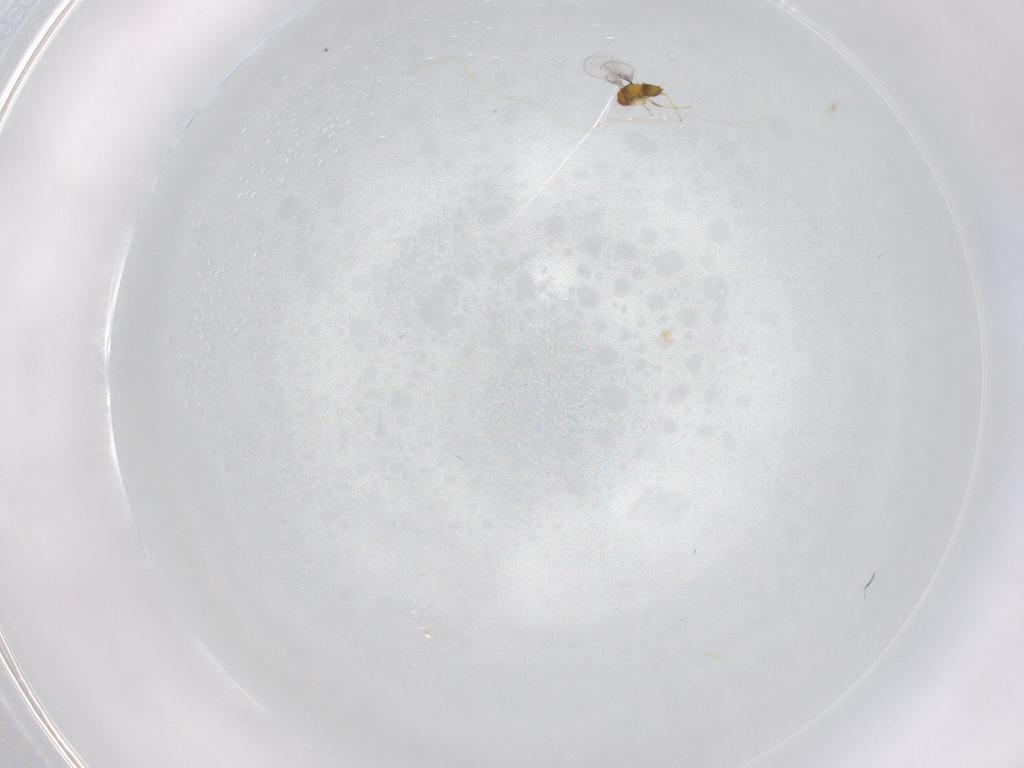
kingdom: Animalia
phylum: Arthropoda
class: Insecta
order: Hymenoptera
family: Trichogrammatidae
